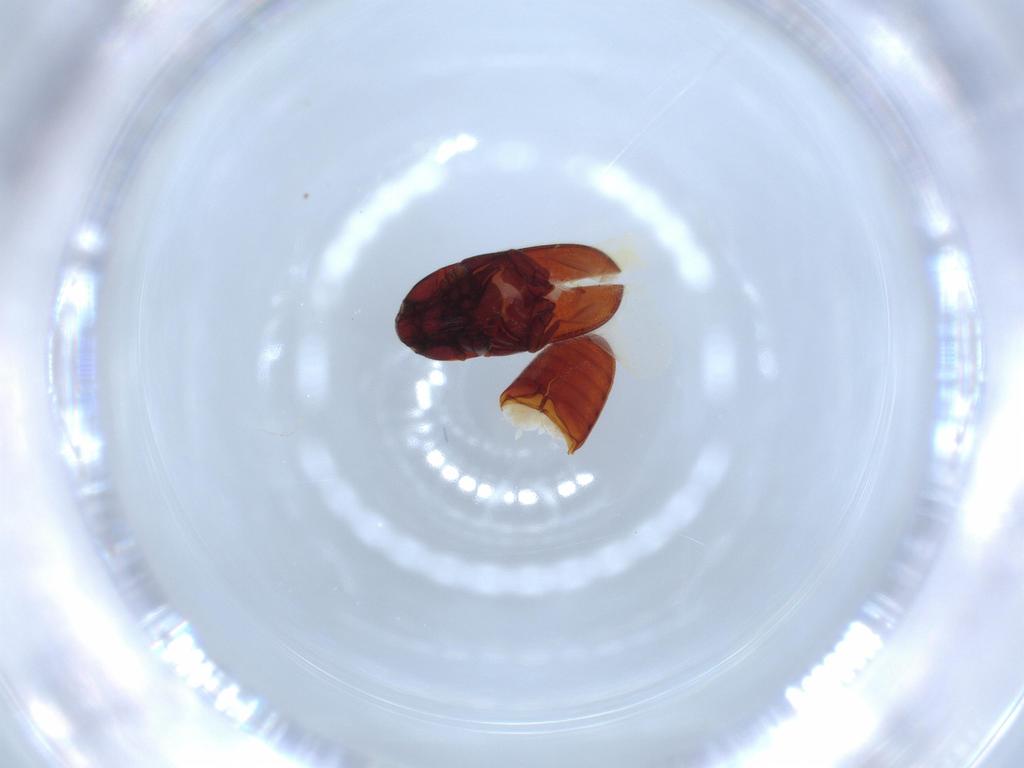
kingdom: Animalia
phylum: Arthropoda
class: Insecta
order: Coleoptera
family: Throscidae
